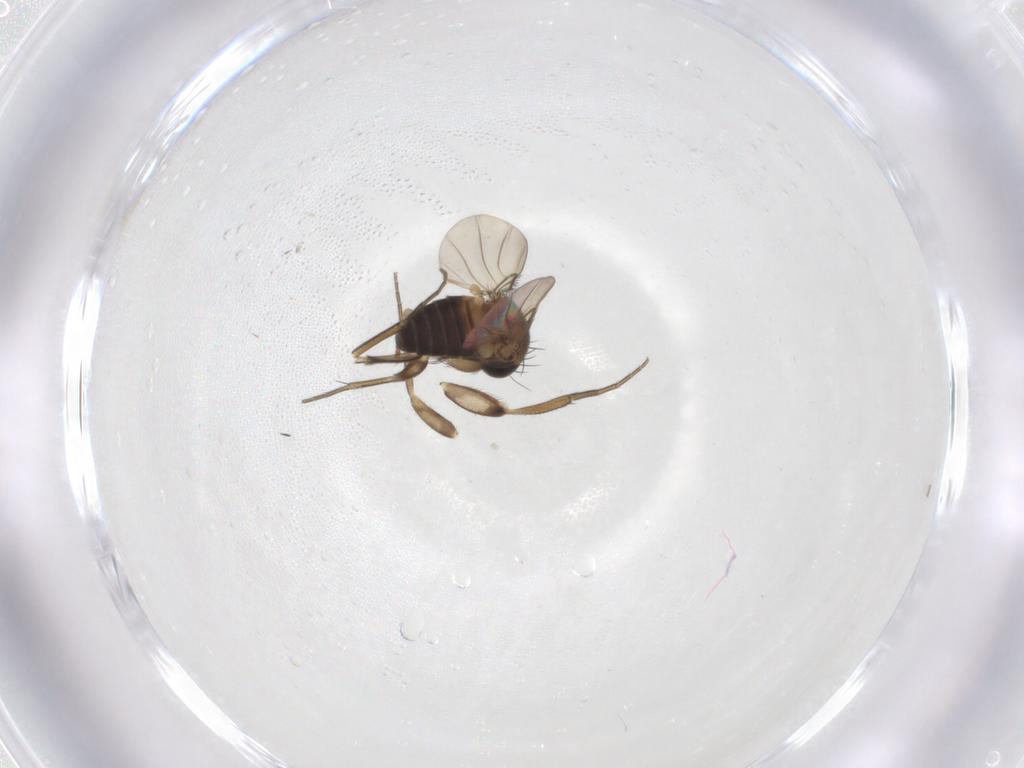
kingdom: Animalia
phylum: Arthropoda
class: Insecta
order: Diptera
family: Phoridae
